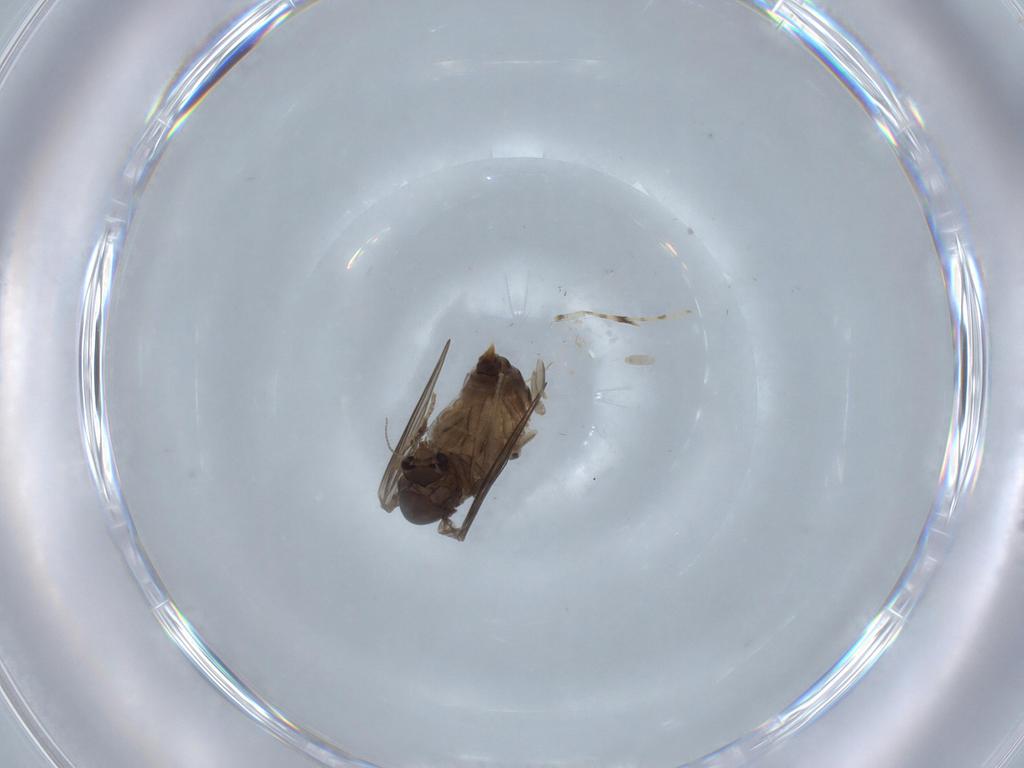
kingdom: Animalia
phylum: Arthropoda
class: Insecta
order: Diptera
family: Psychodidae
